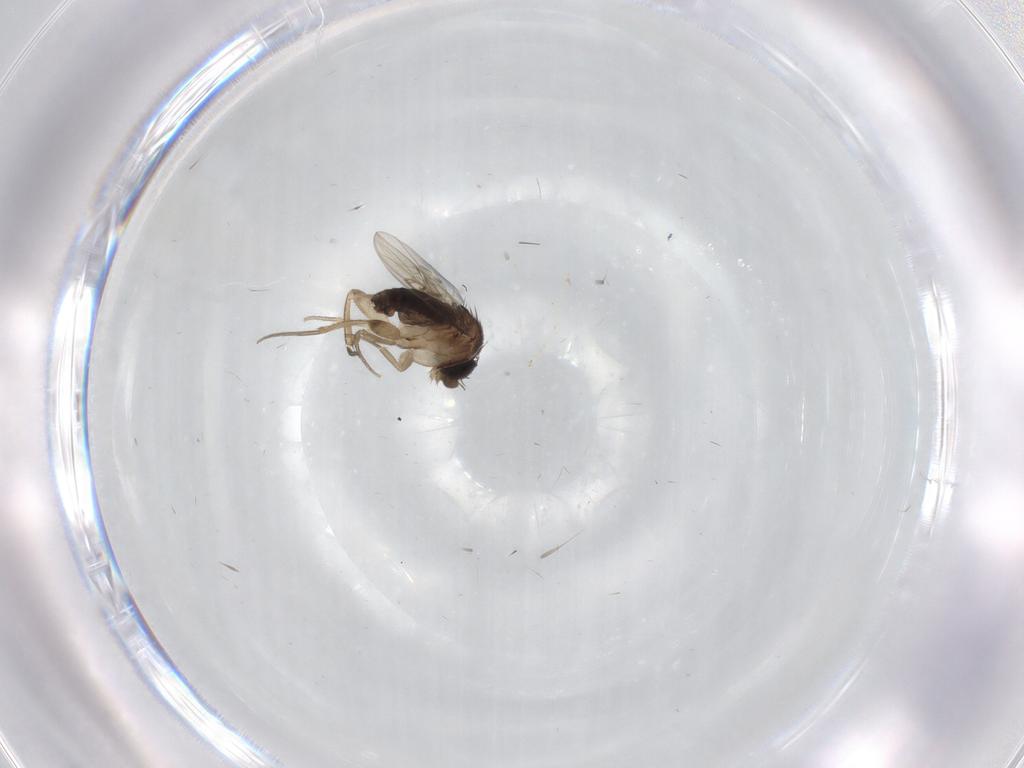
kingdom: Animalia
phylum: Arthropoda
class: Insecta
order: Diptera
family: Phoridae
